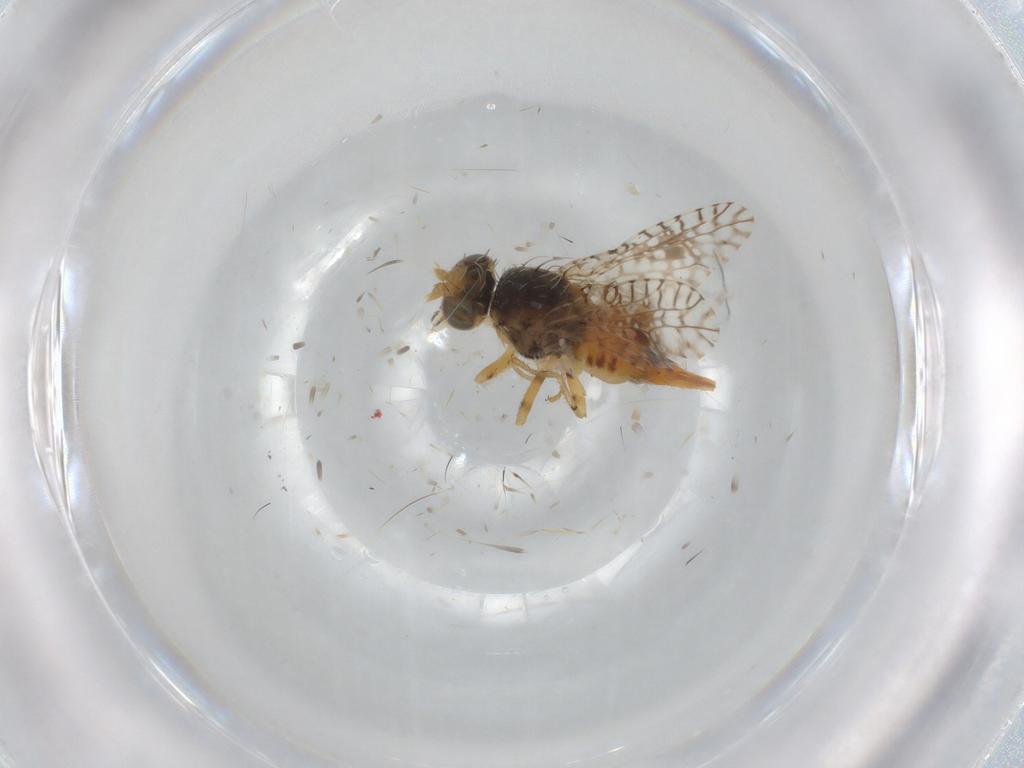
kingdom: Animalia
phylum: Arthropoda
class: Insecta
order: Diptera
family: Tephritidae
